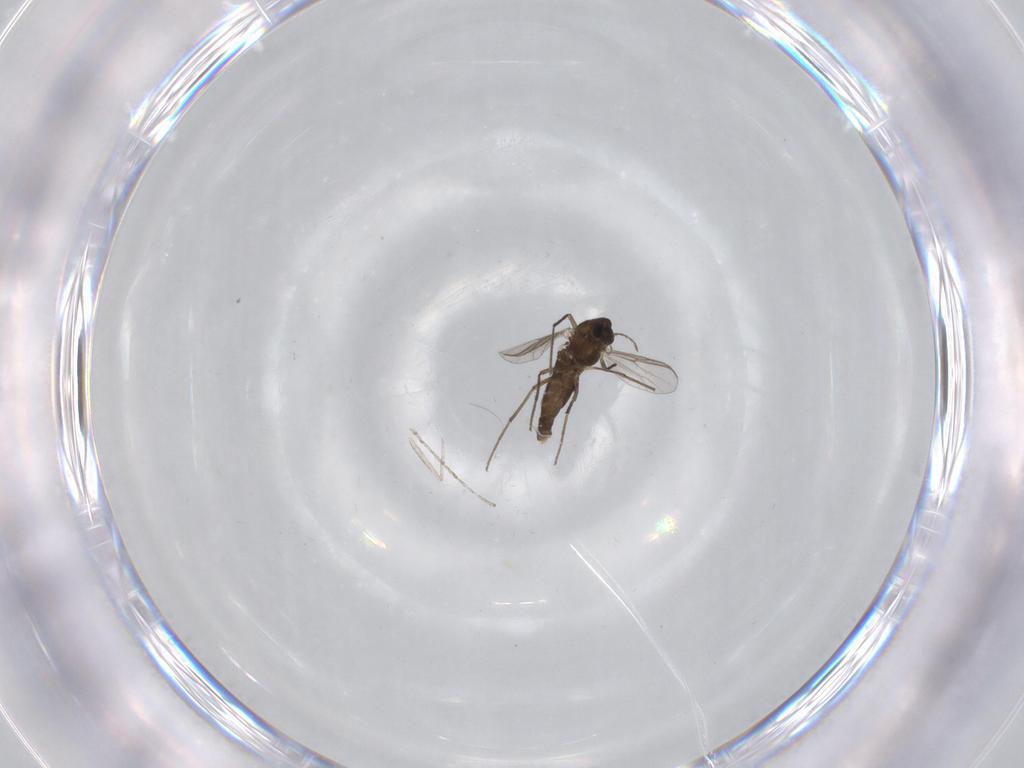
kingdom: Animalia
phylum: Arthropoda
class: Insecta
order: Diptera
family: Chironomidae
